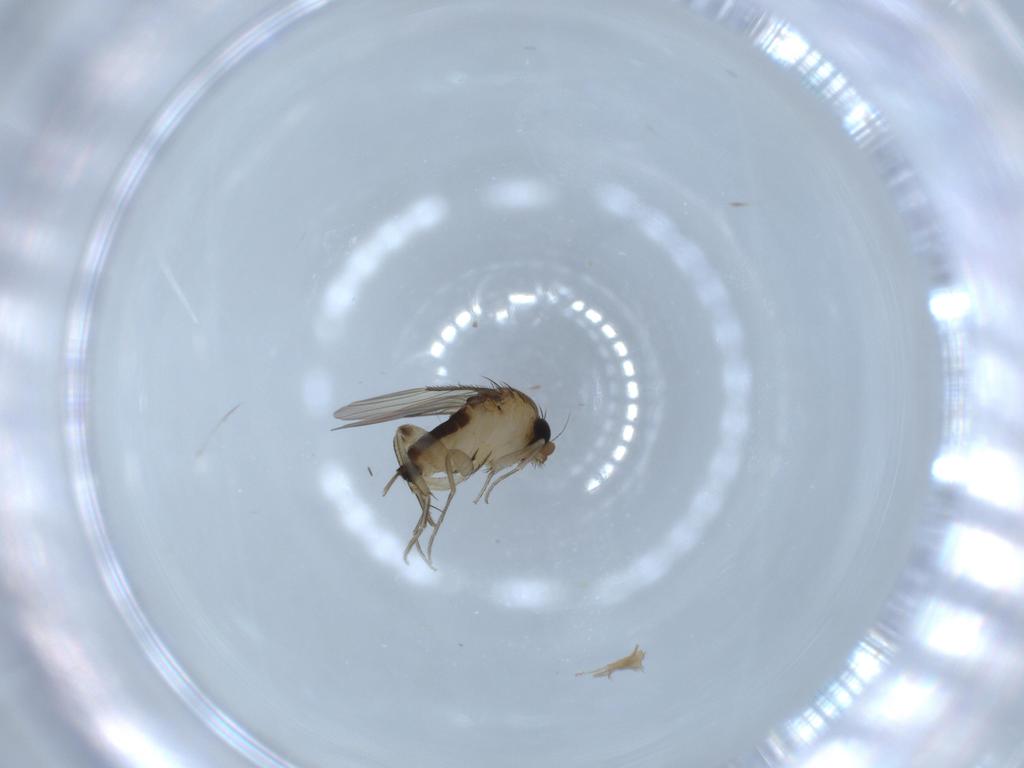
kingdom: Animalia
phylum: Arthropoda
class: Insecta
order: Diptera
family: Phoridae
